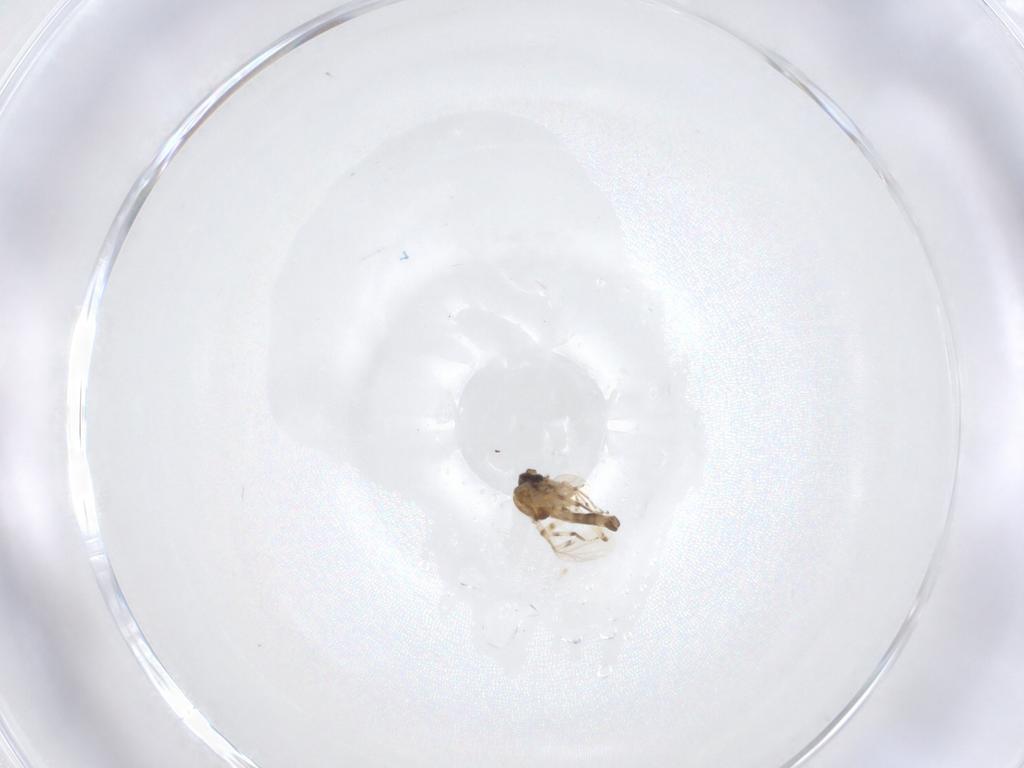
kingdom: Animalia
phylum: Arthropoda
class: Insecta
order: Diptera
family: Ceratopogonidae
